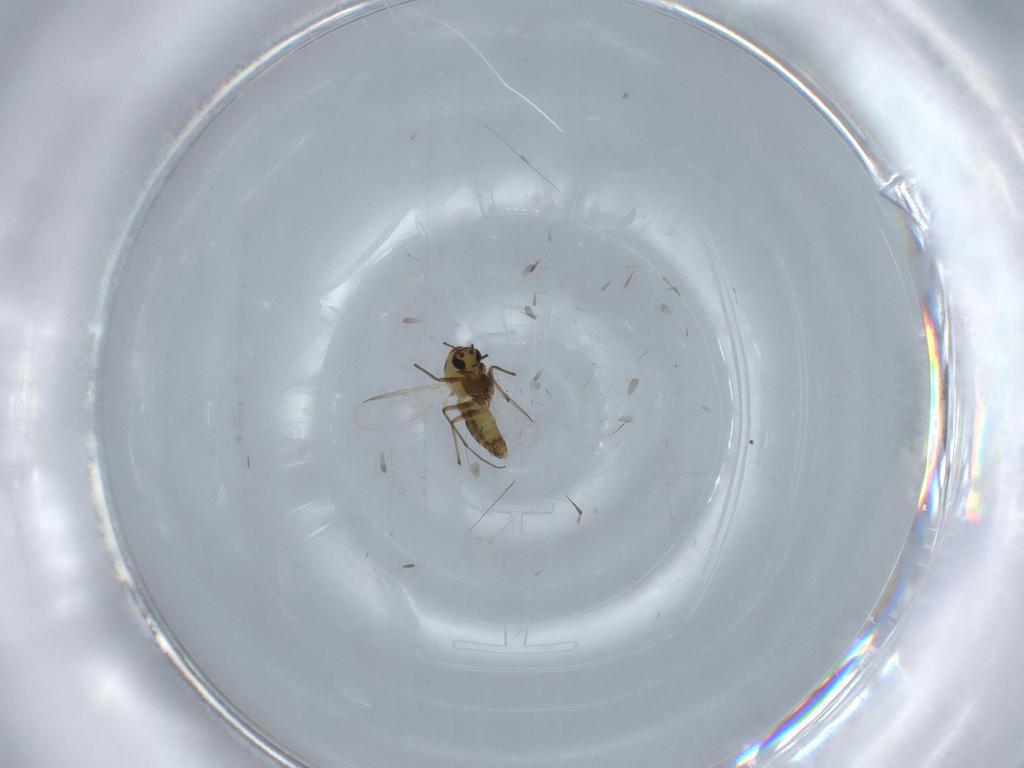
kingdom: Animalia
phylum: Arthropoda
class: Insecta
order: Diptera
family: Chironomidae
